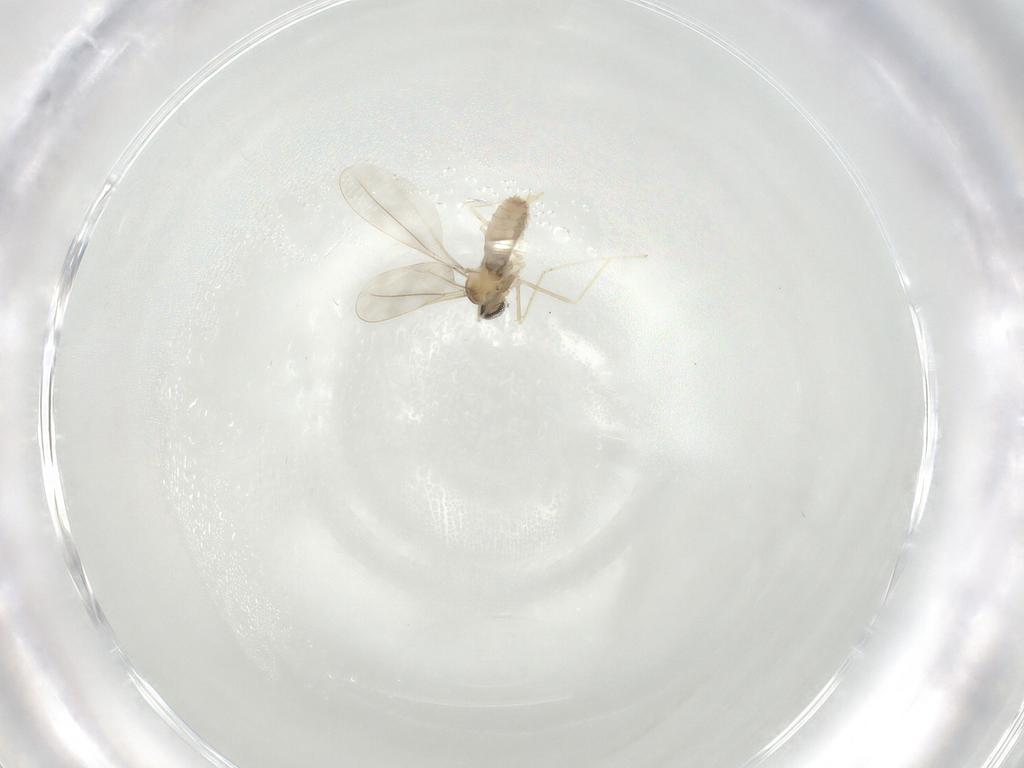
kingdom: Animalia
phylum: Arthropoda
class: Insecta
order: Diptera
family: Cecidomyiidae
